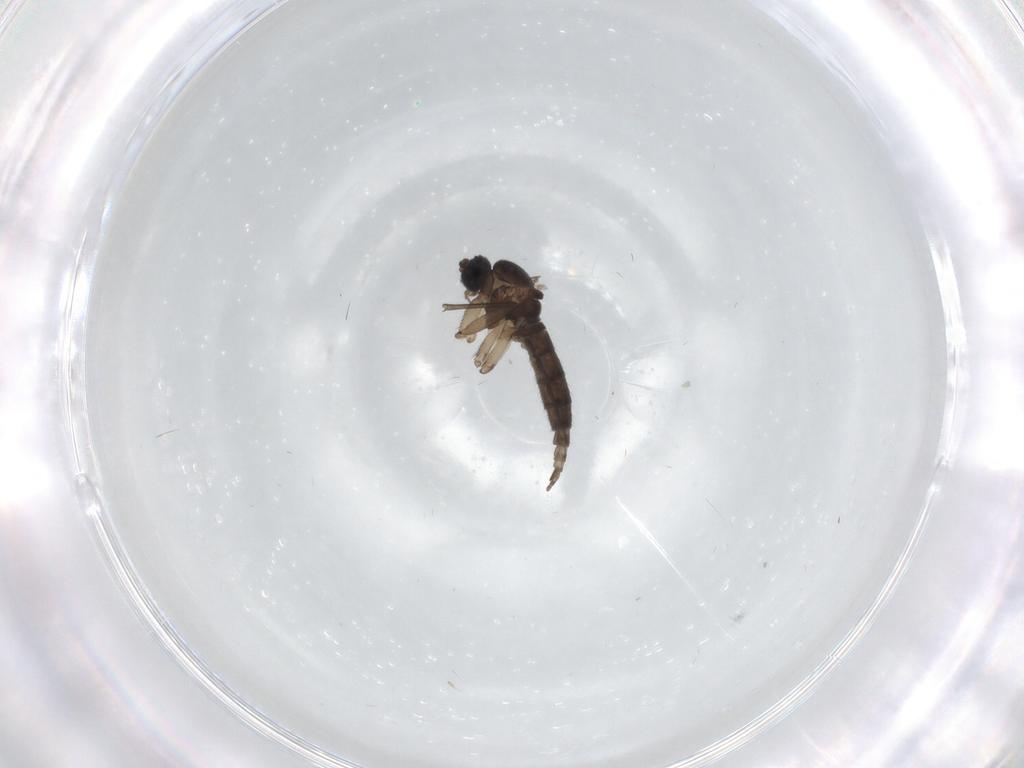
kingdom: Animalia
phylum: Arthropoda
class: Insecta
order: Diptera
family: Sciaridae
